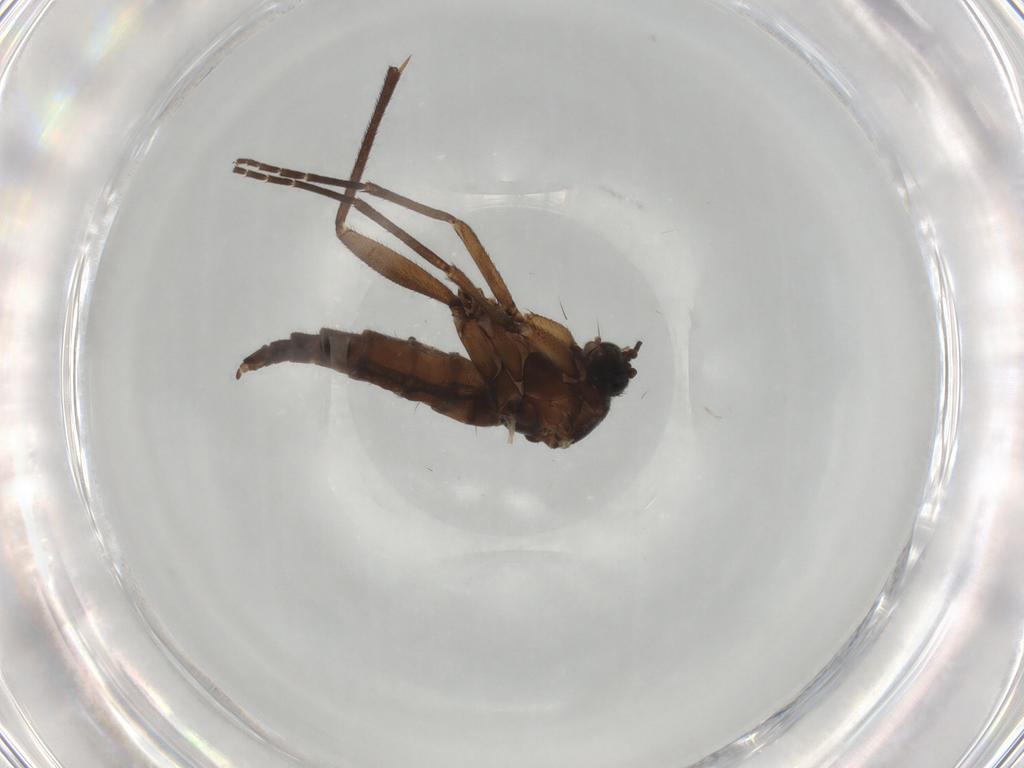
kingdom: Animalia
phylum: Arthropoda
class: Insecta
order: Diptera
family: Sciaridae
